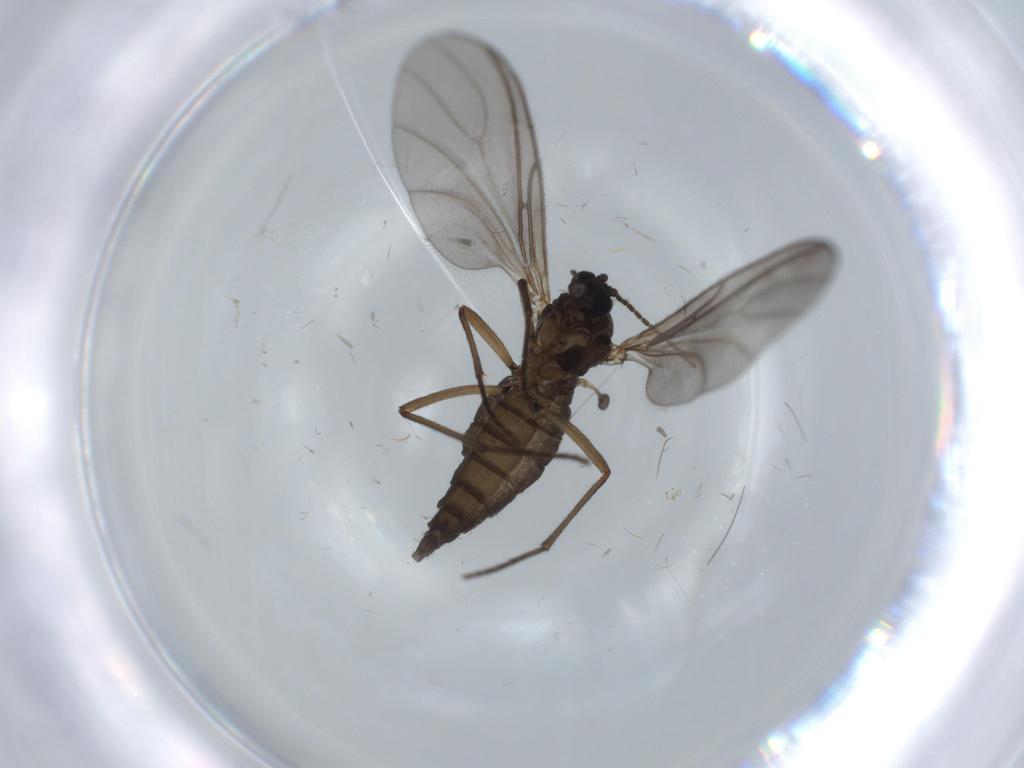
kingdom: Animalia
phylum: Arthropoda
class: Insecta
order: Diptera
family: Sciaridae
